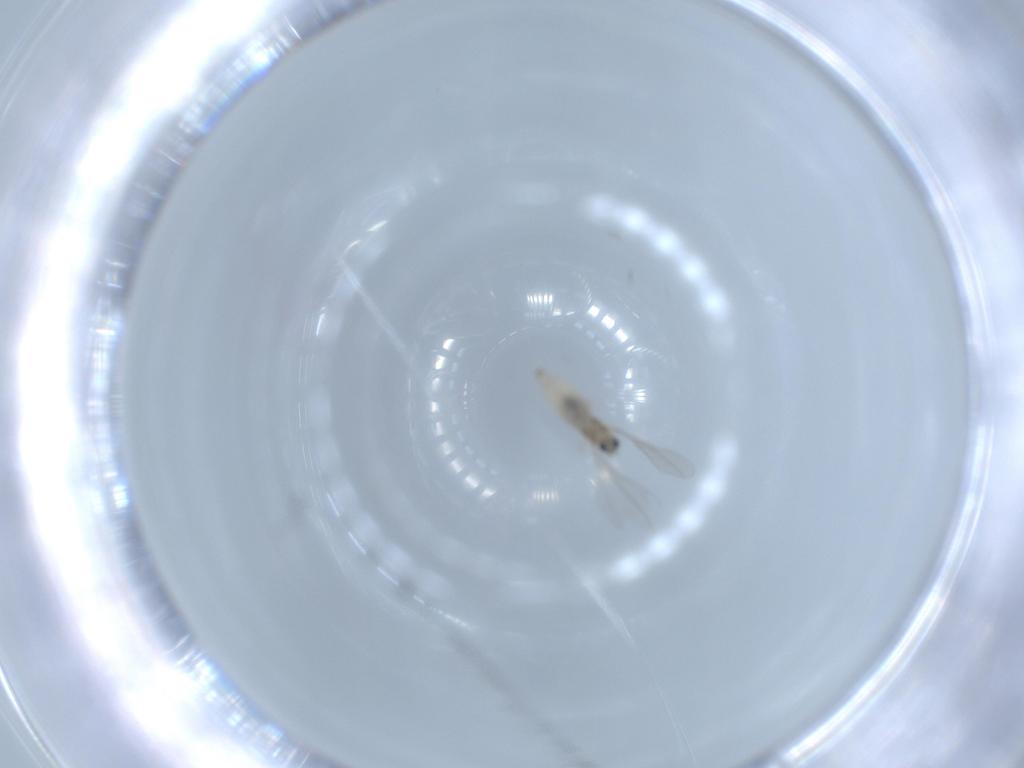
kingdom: Animalia
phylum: Arthropoda
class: Insecta
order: Diptera
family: Cecidomyiidae
